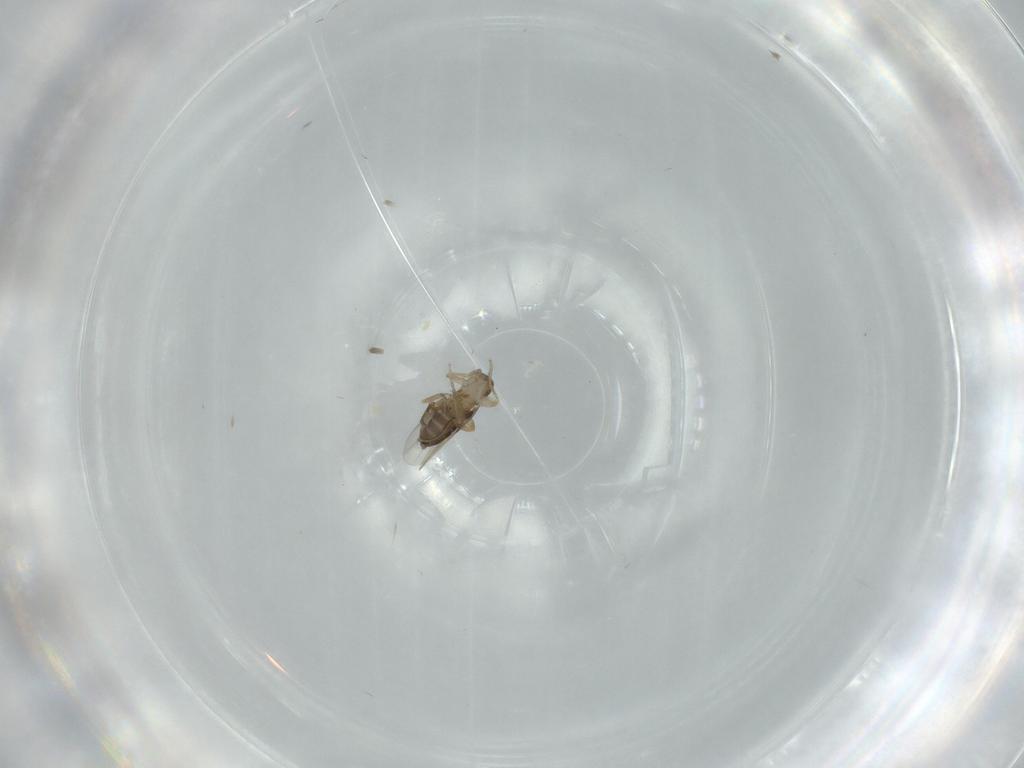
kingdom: Animalia
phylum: Arthropoda
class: Insecta
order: Diptera
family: Phoridae
